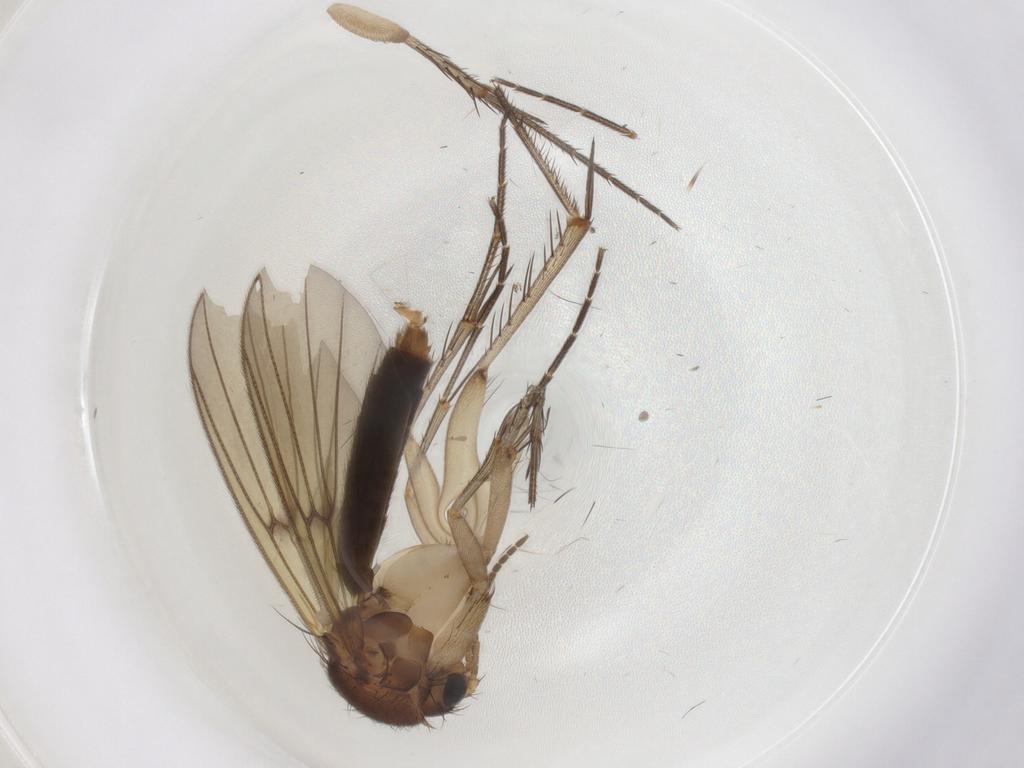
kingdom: Animalia
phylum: Arthropoda
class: Insecta
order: Diptera
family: Mycetophilidae
